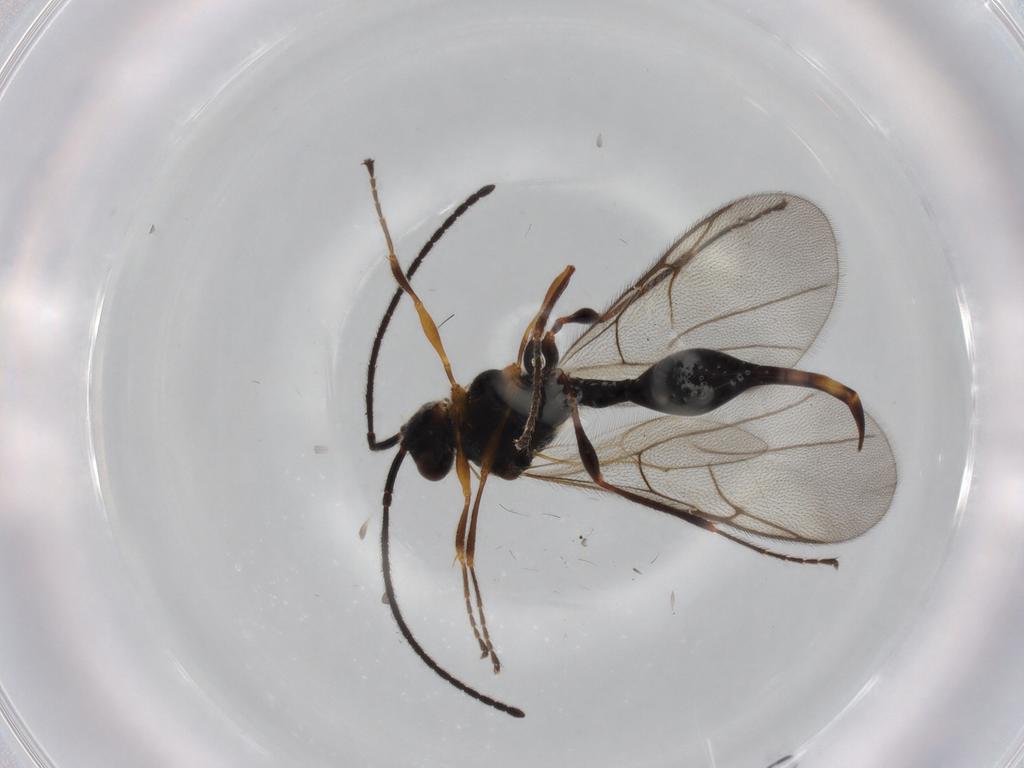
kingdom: Animalia
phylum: Arthropoda
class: Insecta
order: Hymenoptera
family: Diapriidae
